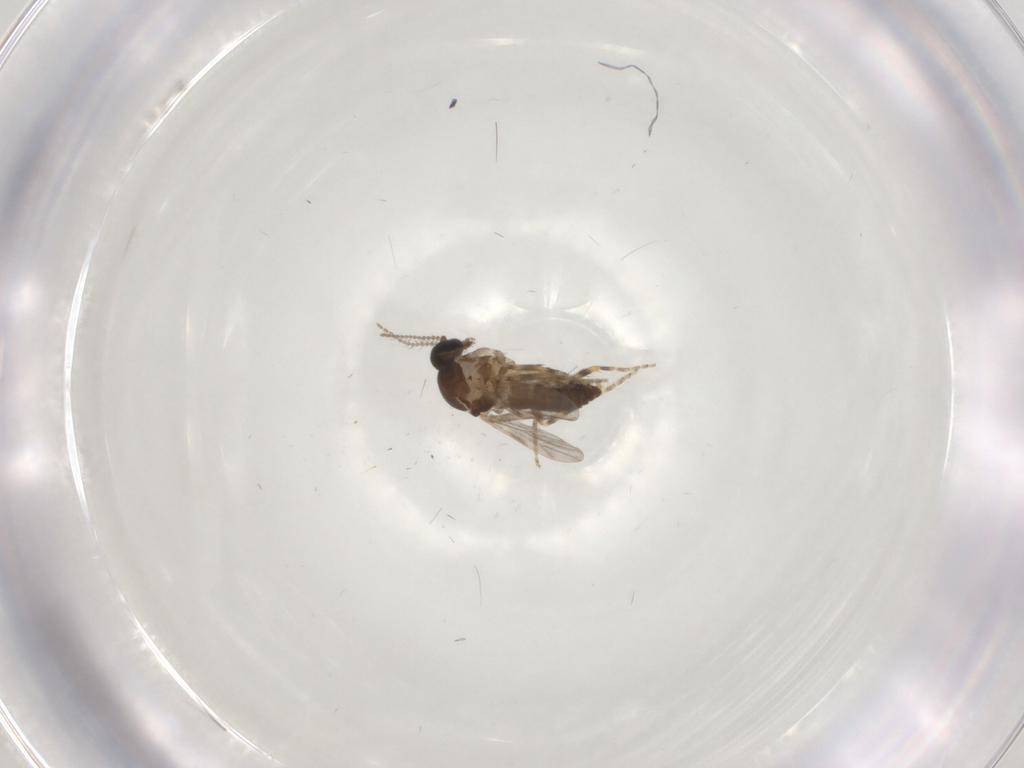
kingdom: Animalia
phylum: Arthropoda
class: Insecta
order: Diptera
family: Ceratopogonidae
